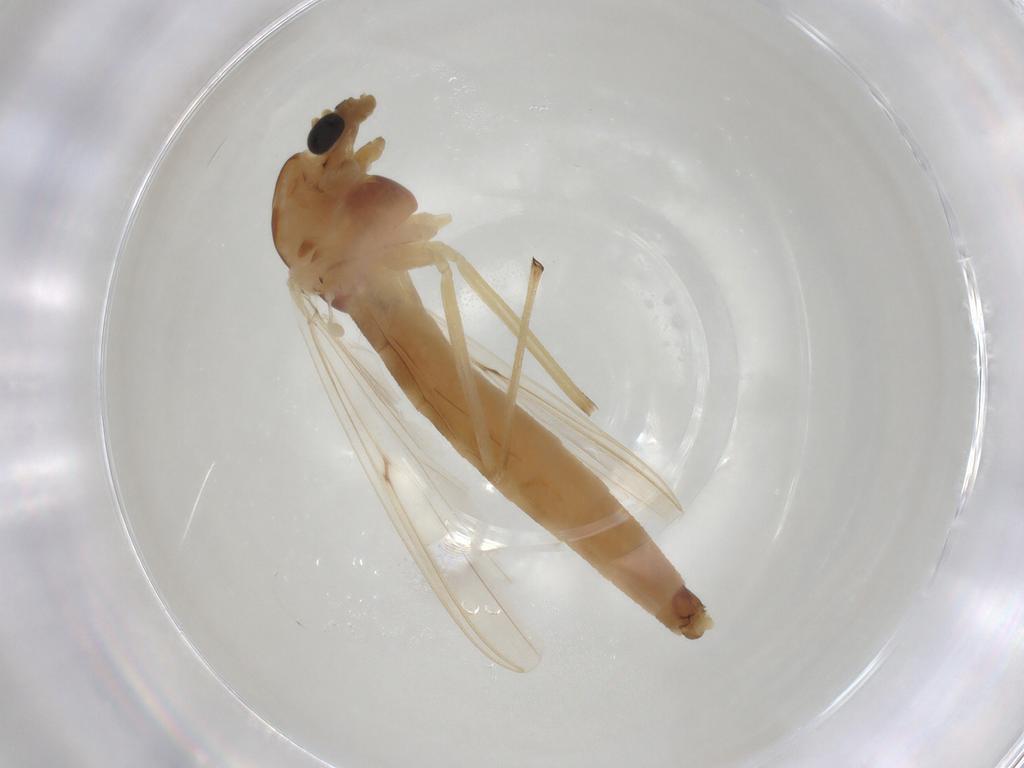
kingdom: Animalia
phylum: Arthropoda
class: Insecta
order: Diptera
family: Chironomidae
